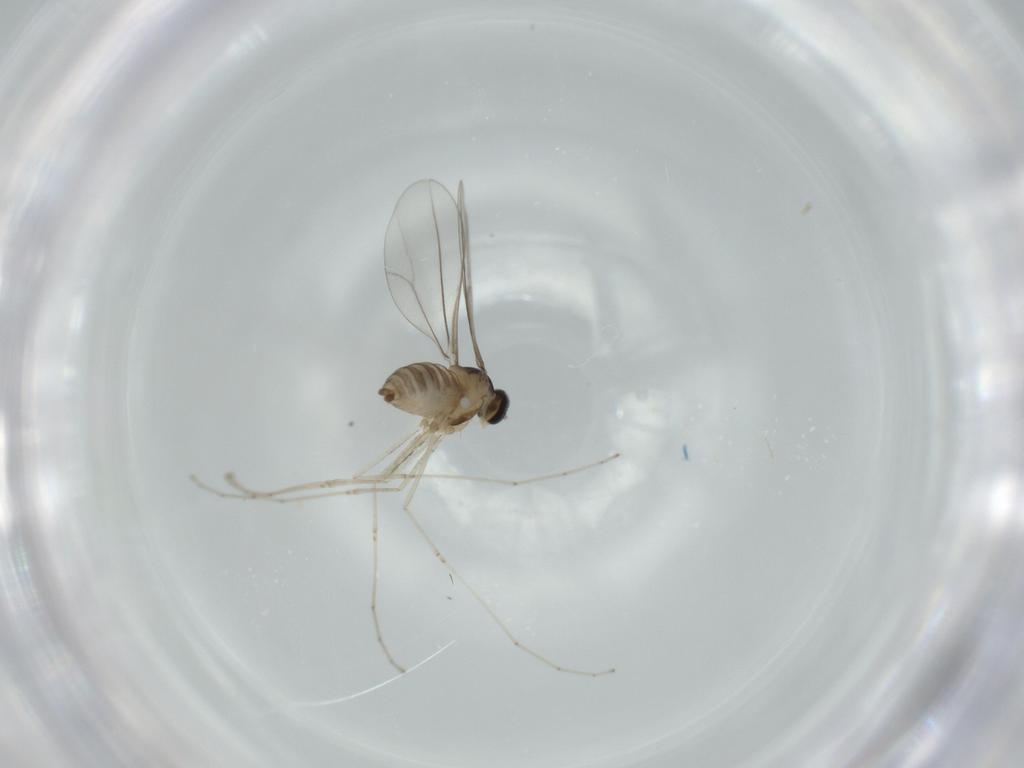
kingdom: Animalia
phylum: Arthropoda
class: Insecta
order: Diptera
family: Cecidomyiidae
